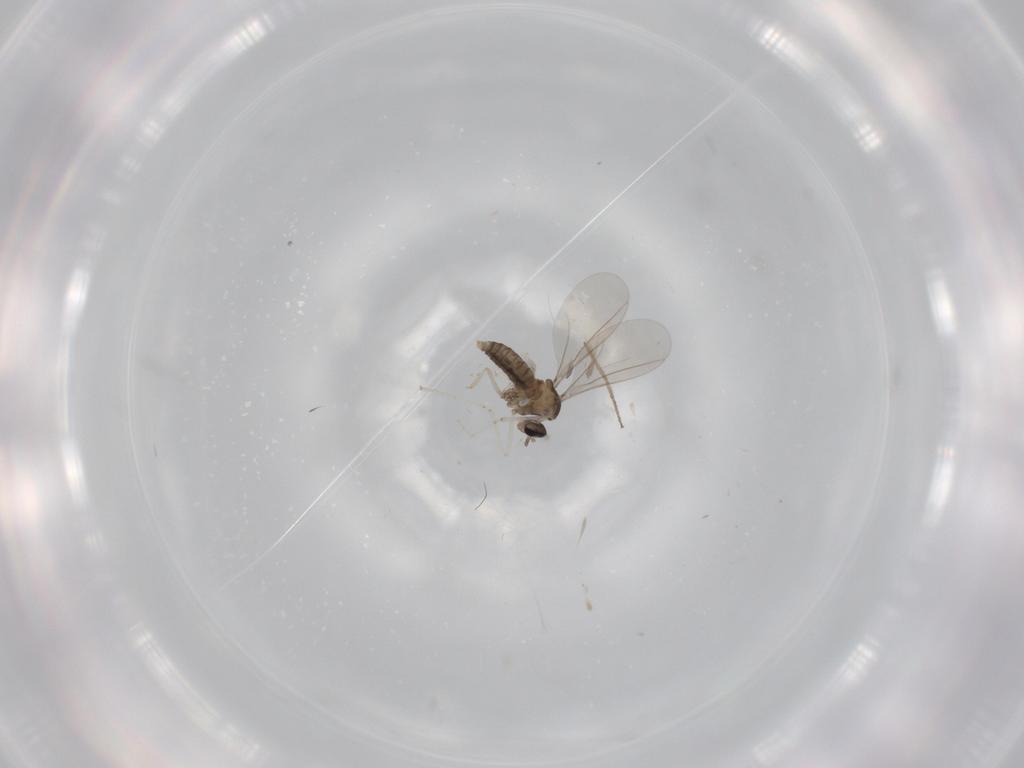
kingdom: Animalia
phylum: Arthropoda
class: Insecta
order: Diptera
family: Cecidomyiidae
